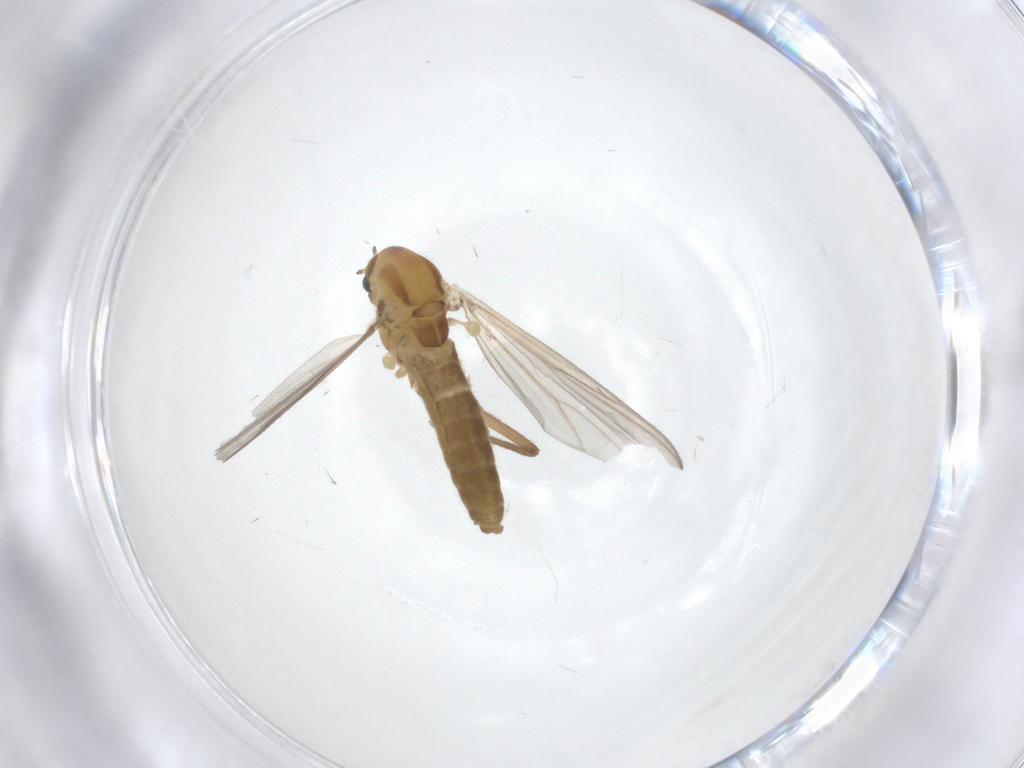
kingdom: Animalia
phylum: Arthropoda
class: Insecta
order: Diptera
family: Chironomidae
